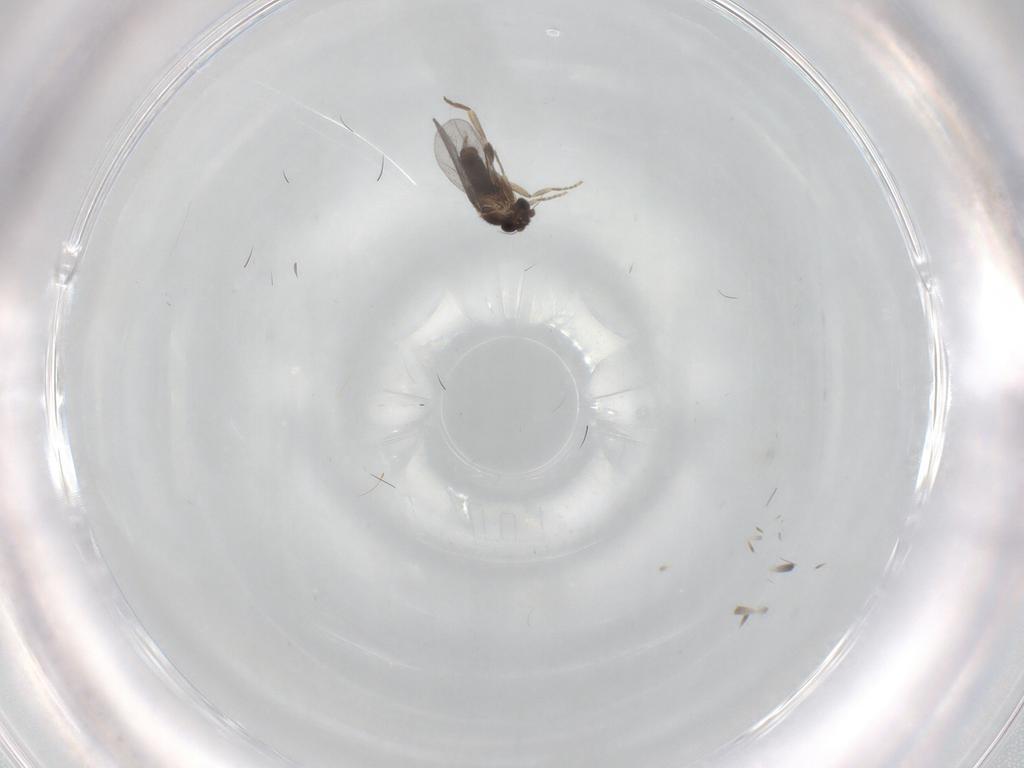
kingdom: Animalia
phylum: Arthropoda
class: Insecta
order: Diptera
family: Phoridae
